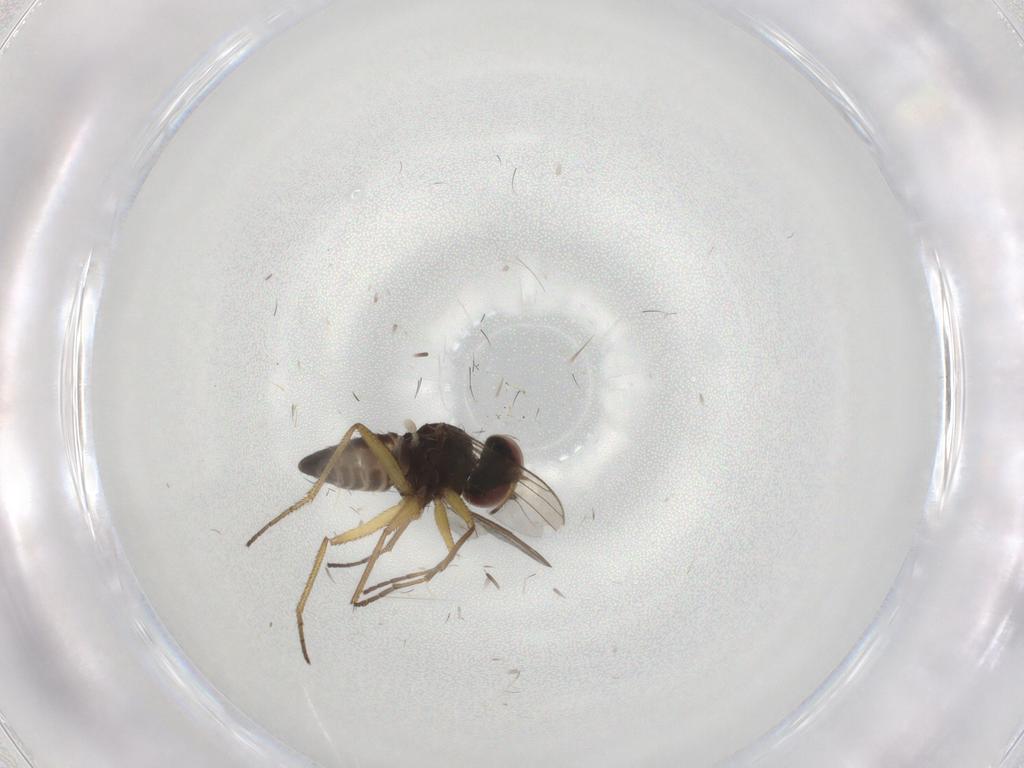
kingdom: Animalia
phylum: Arthropoda
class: Insecta
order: Diptera
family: Dolichopodidae
